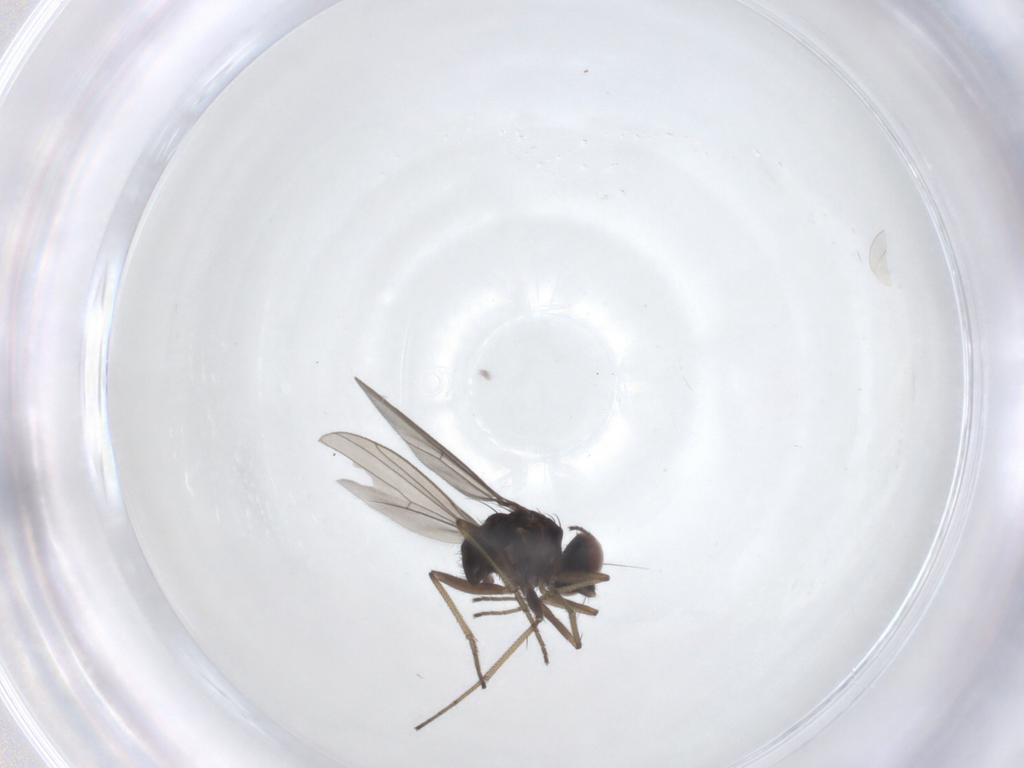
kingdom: Animalia
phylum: Arthropoda
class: Insecta
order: Diptera
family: Dolichopodidae
